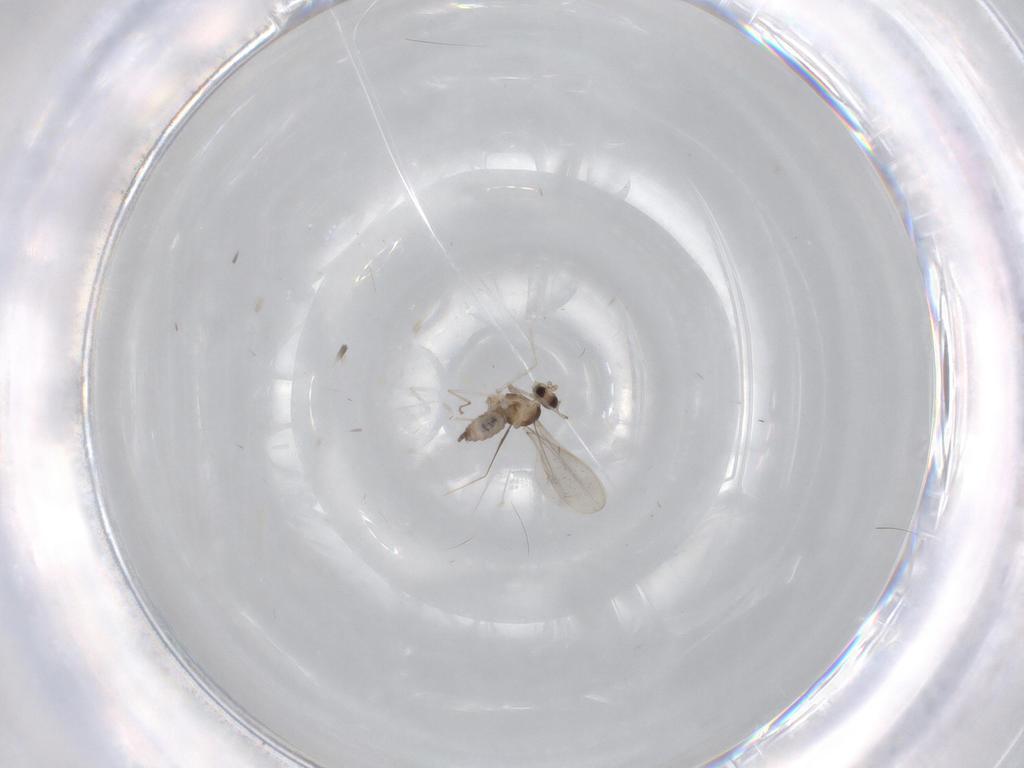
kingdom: Animalia
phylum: Arthropoda
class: Insecta
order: Diptera
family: Cecidomyiidae
